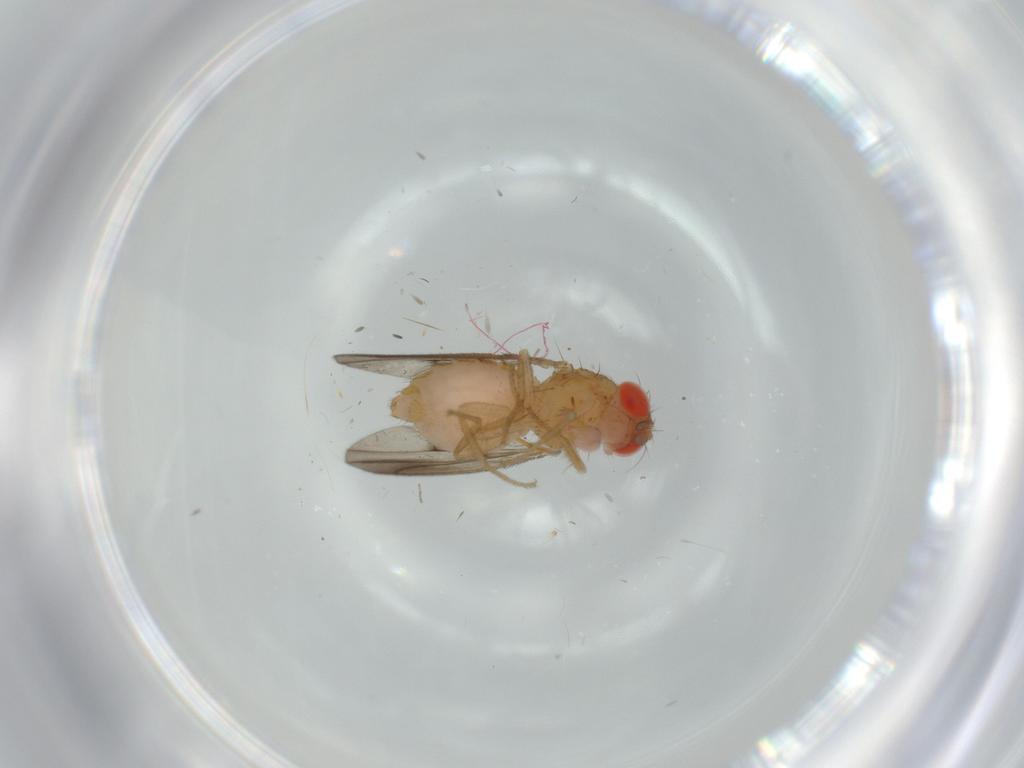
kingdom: Animalia
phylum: Arthropoda
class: Insecta
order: Diptera
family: Drosophilidae
